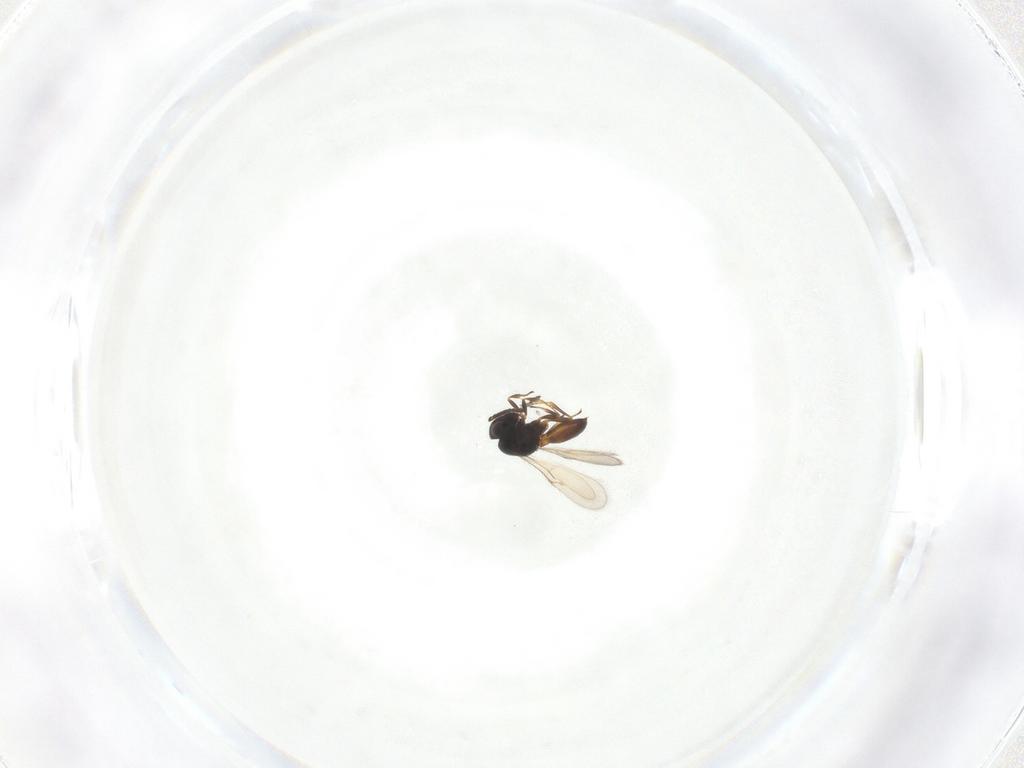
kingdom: Animalia
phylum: Arthropoda
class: Insecta
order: Hymenoptera
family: Scelionidae
